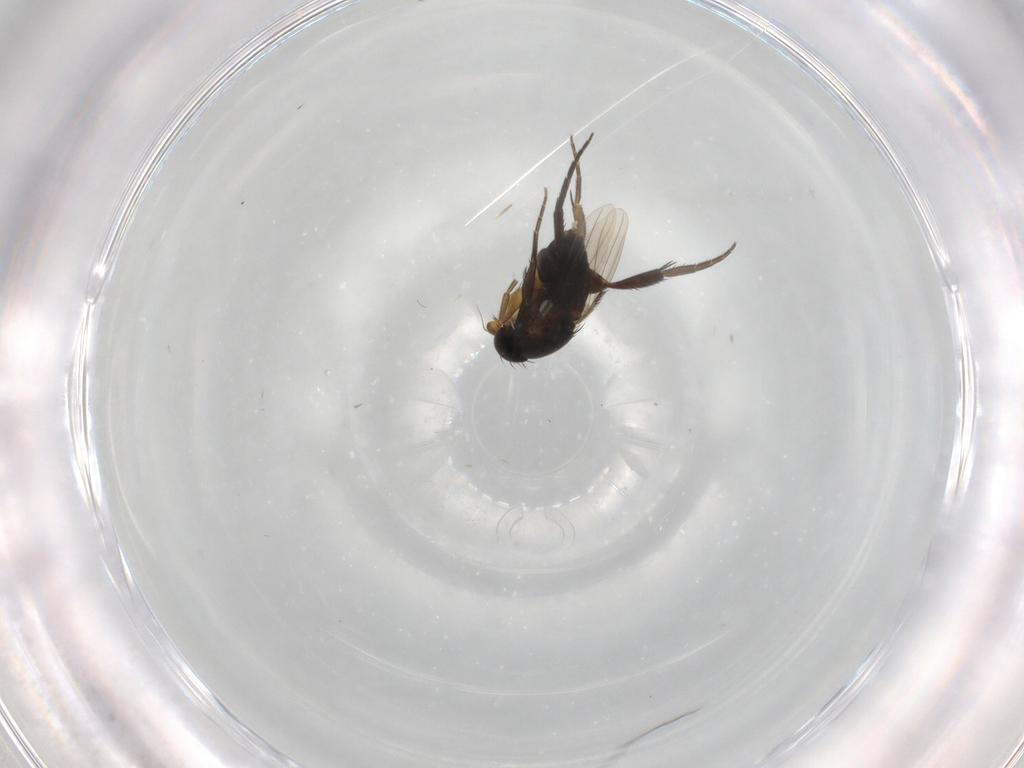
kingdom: Animalia
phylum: Arthropoda
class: Insecta
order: Diptera
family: Phoridae
